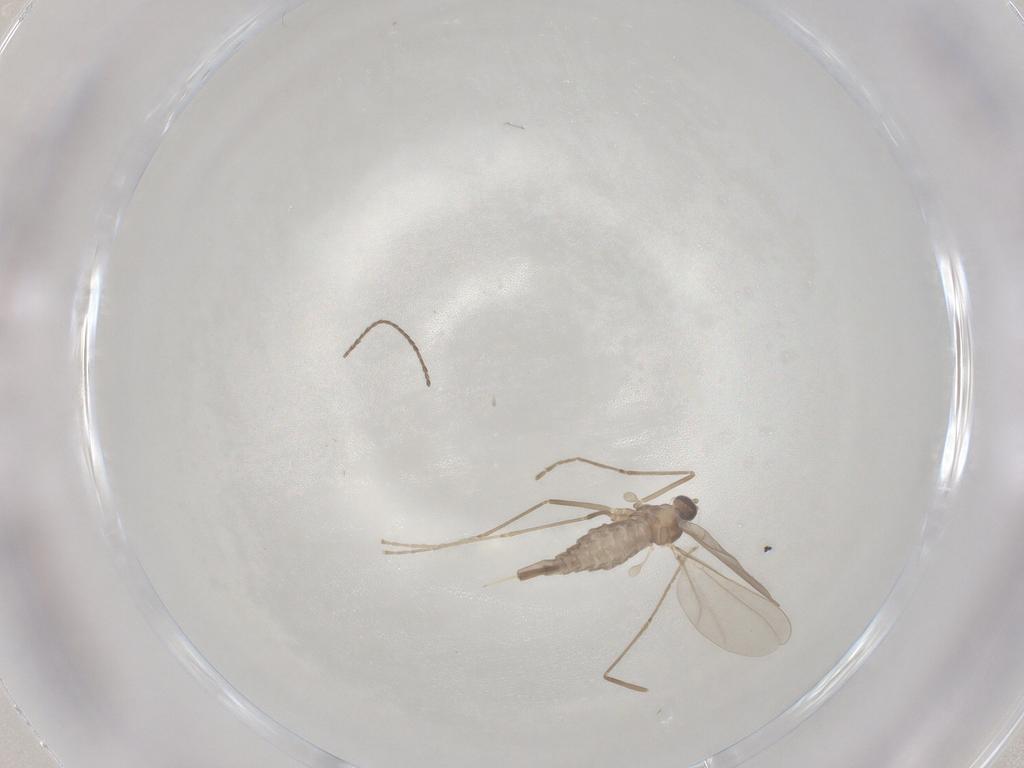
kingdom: Animalia
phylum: Arthropoda
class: Insecta
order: Diptera
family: Cecidomyiidae
